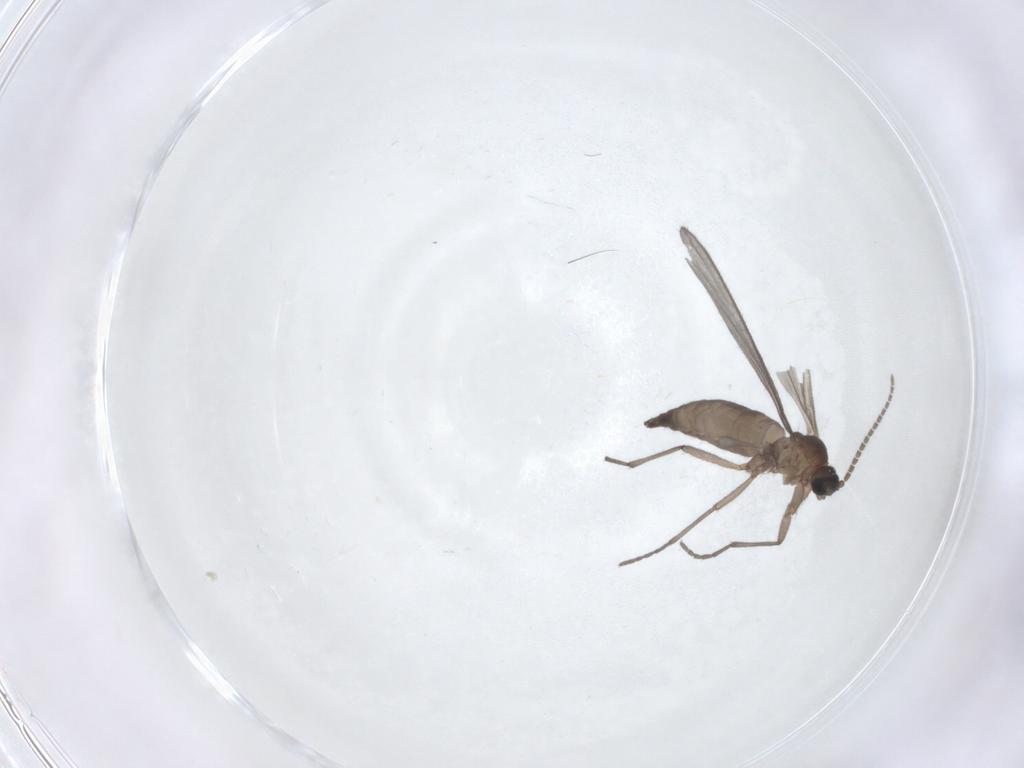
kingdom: Animalia
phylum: Arthropoda
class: Insecta
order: Diptera
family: Sciaridae
